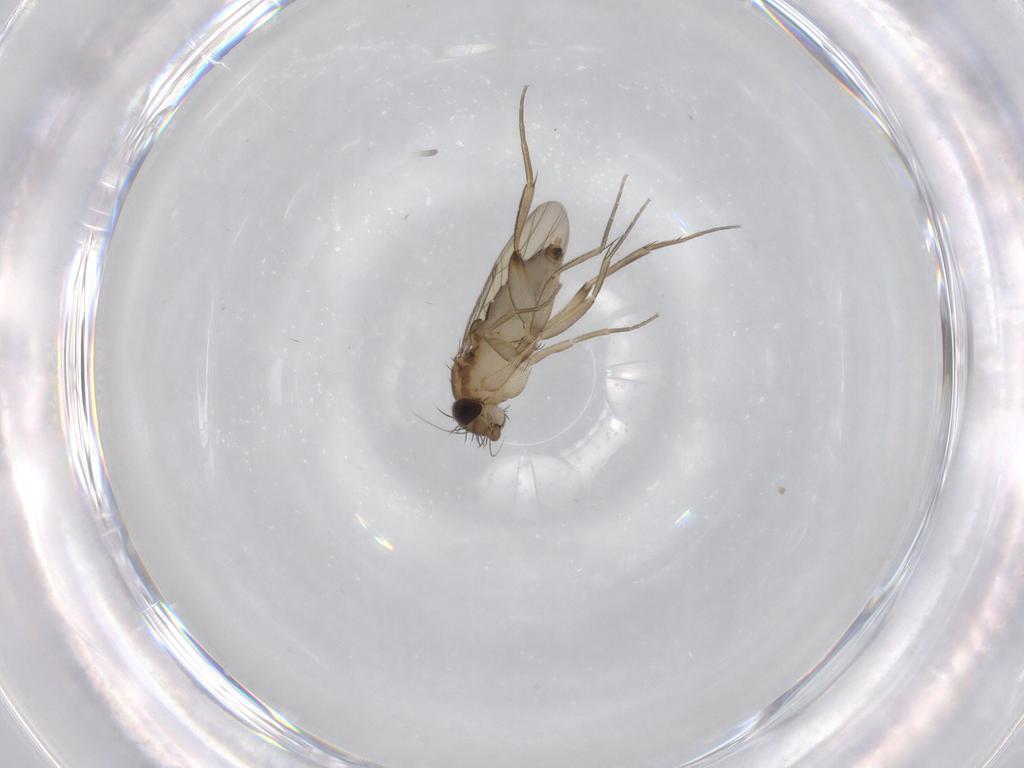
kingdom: Animalia
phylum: Arthropoda
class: Insecta
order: Diptera
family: Phoridae
